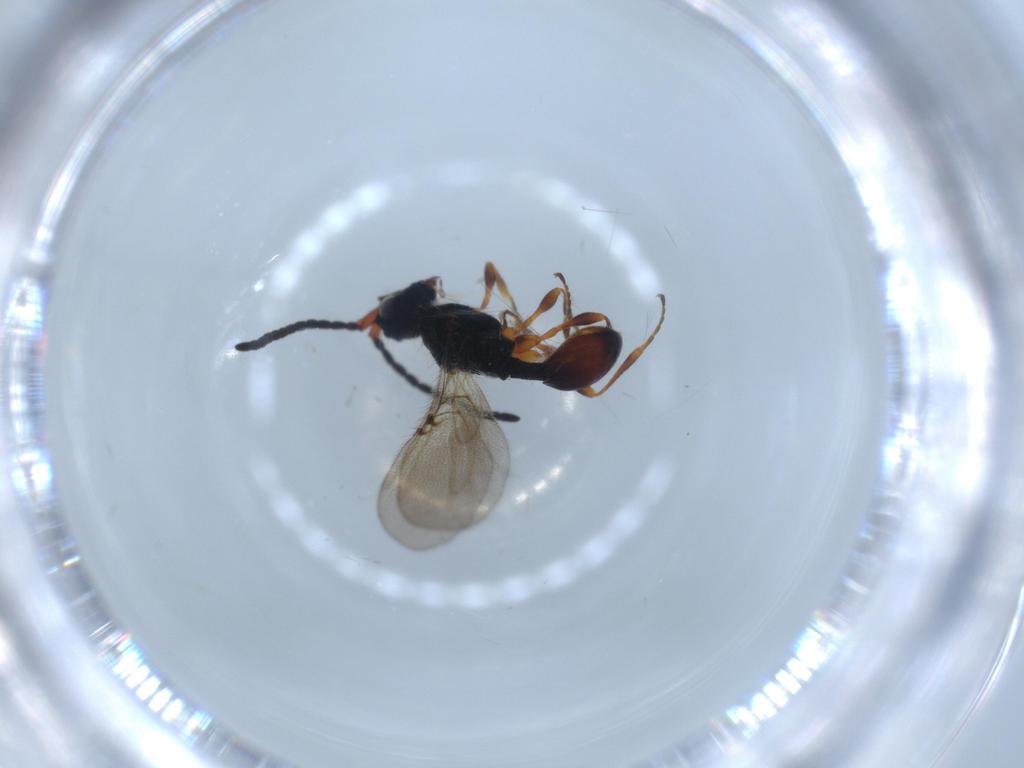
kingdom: Animalia
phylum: Arthropoda
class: Insecta
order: Hymenoptera
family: Diapriidae
